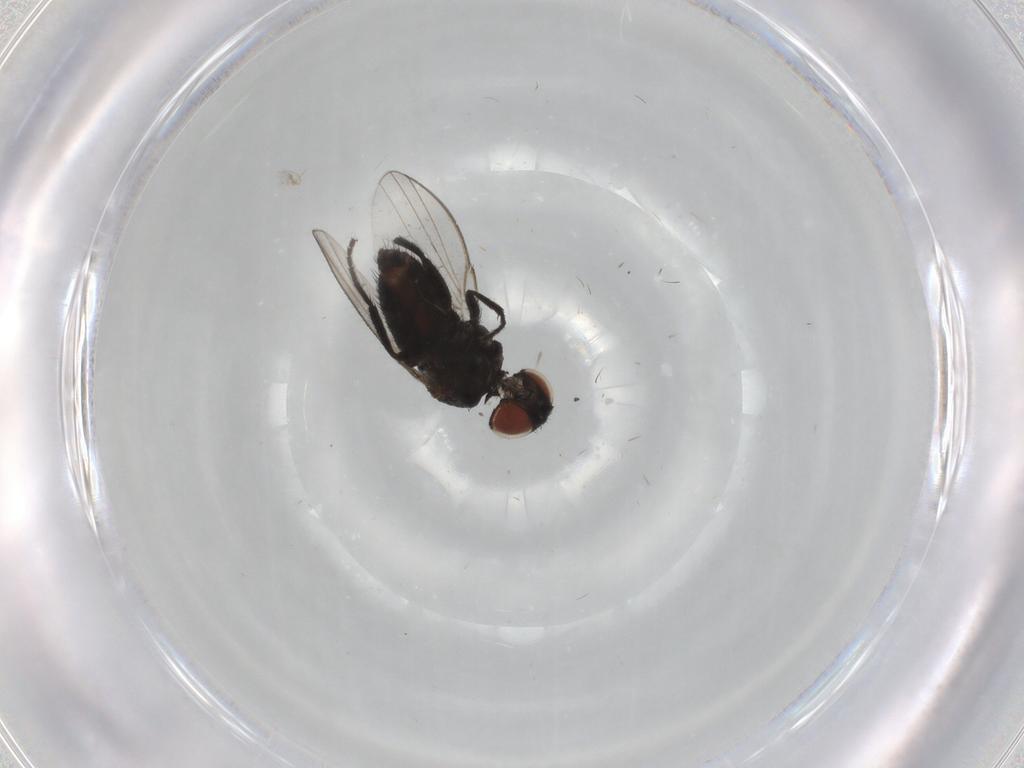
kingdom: Animalia
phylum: Arthropoda
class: Insecta
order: Diptera
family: Milichiidae
